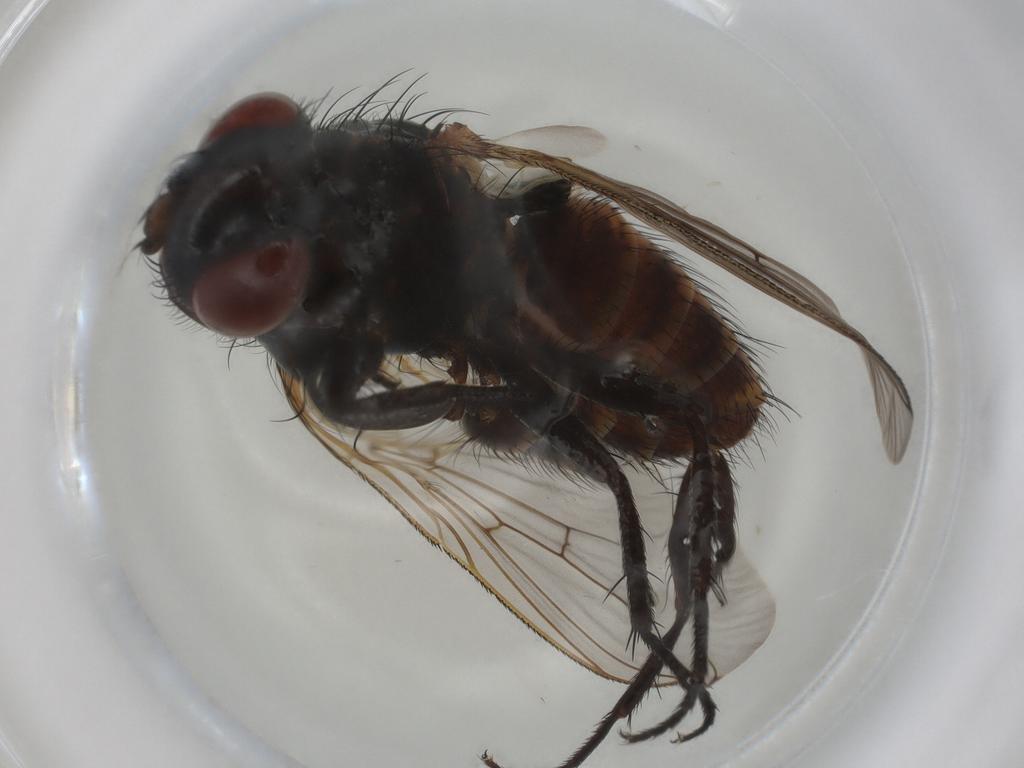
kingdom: Animalia
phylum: Arthropoda
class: Insecta
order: Diptera
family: Sarcophagidae
